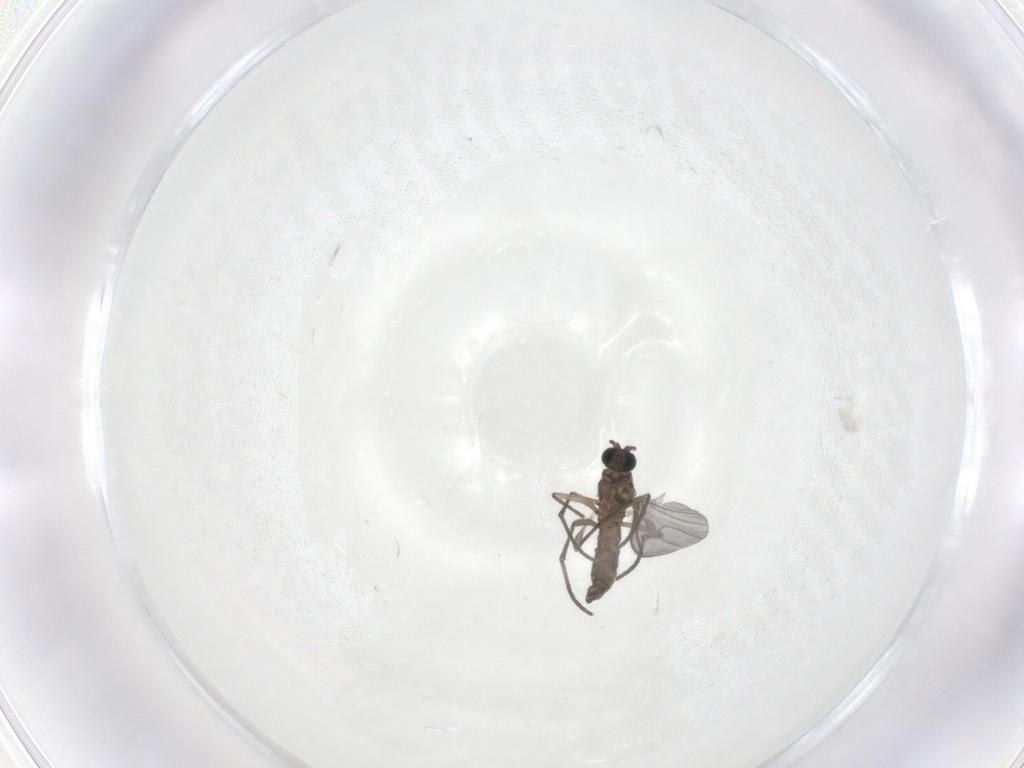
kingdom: Animalia
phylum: Arthropoda
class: Insecta
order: Diptera
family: Sciaridae
